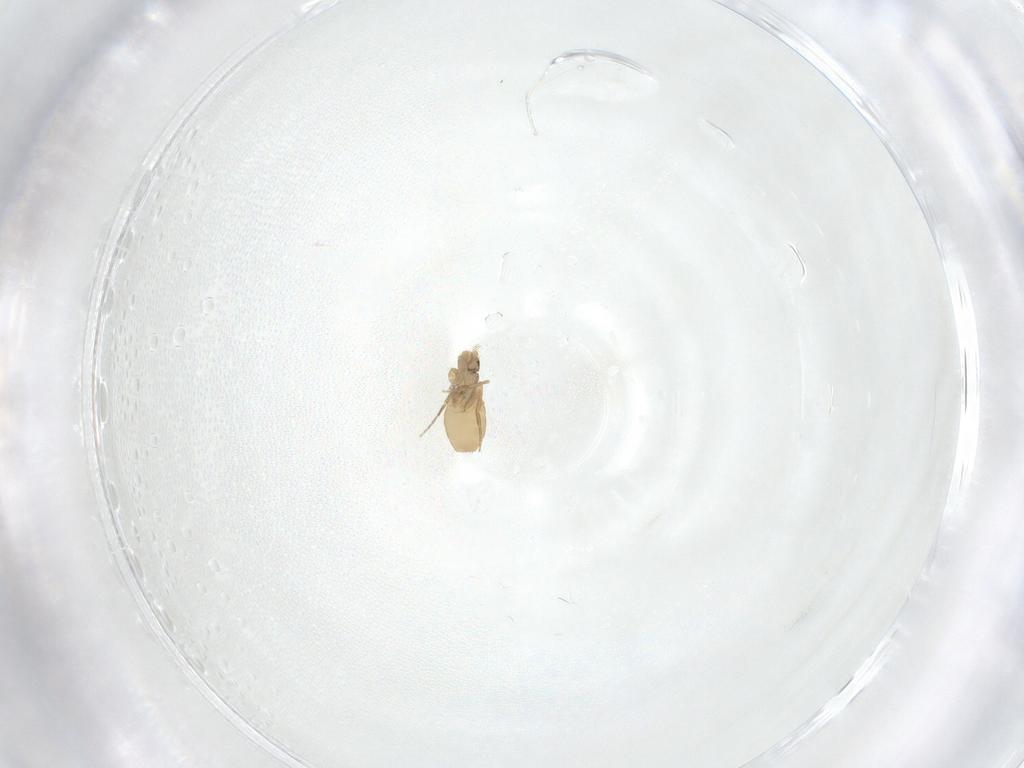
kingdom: Animalia
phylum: Arthropoda
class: Insecta
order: Diptera
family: Phoridae
